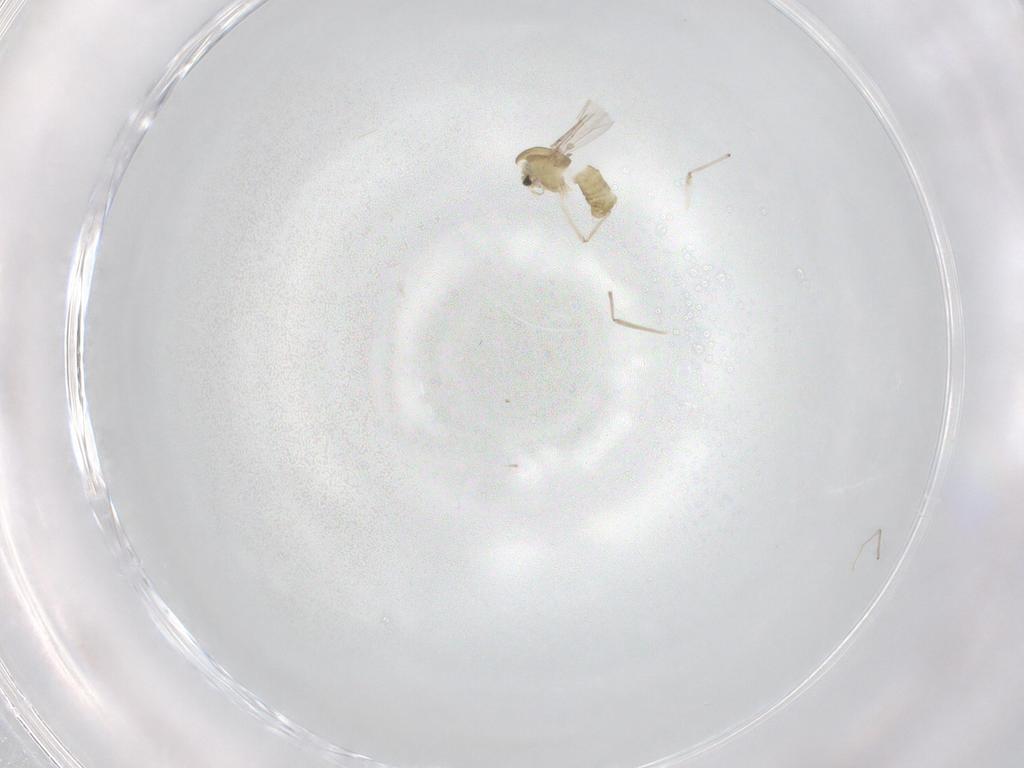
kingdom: Animalia
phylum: Arthropoda
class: Insecta
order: Diptera
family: Chironomidae
